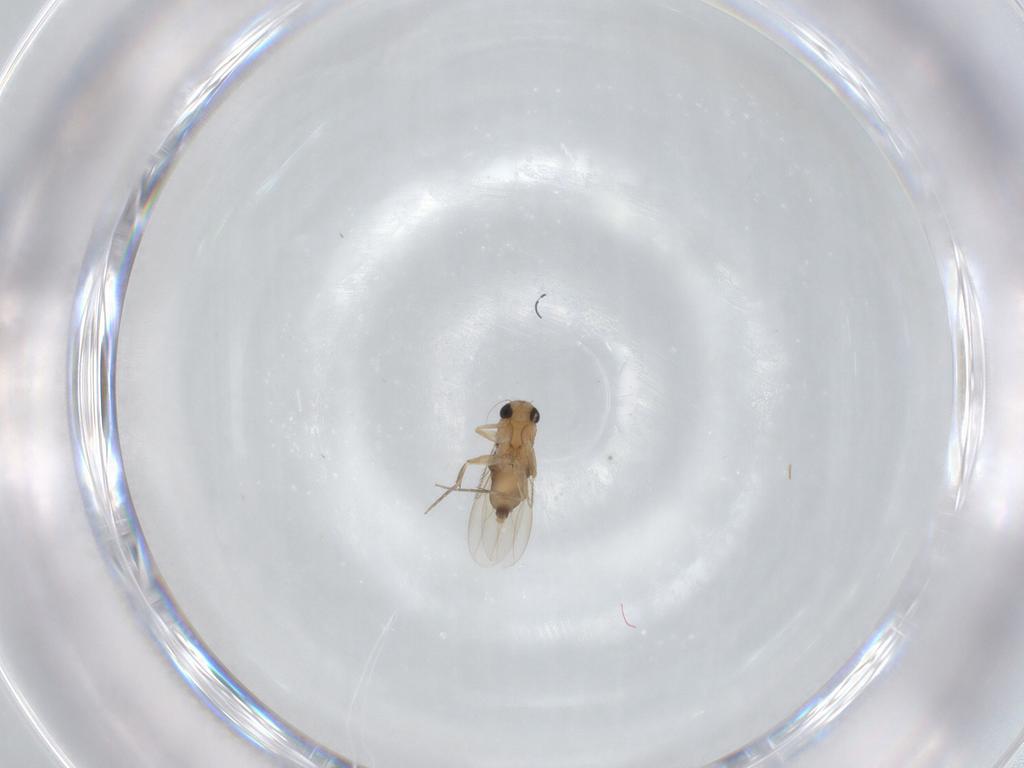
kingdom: Animalia
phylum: Arthropoda
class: Insecta
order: Diptera
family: Phoridae
